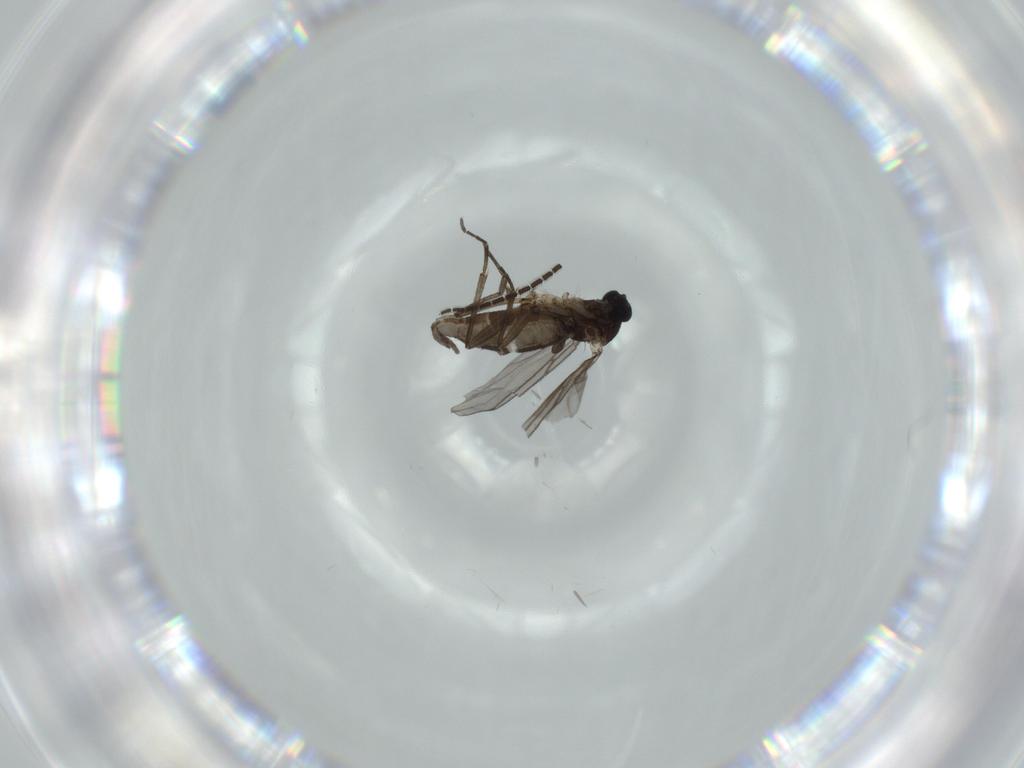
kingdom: Animalia
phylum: Arthropoda
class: Insecta
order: Diptera
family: Sciaridae
